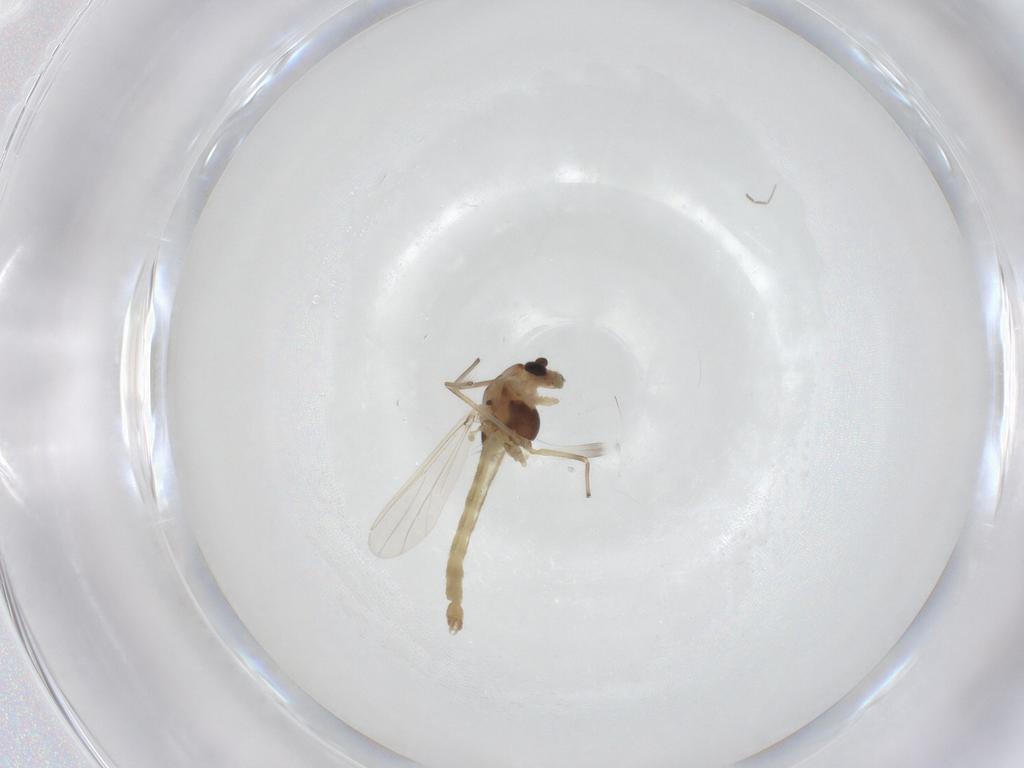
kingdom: Animalia
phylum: Arthropoda
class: Insecta
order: Diptera
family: Chironomidae
